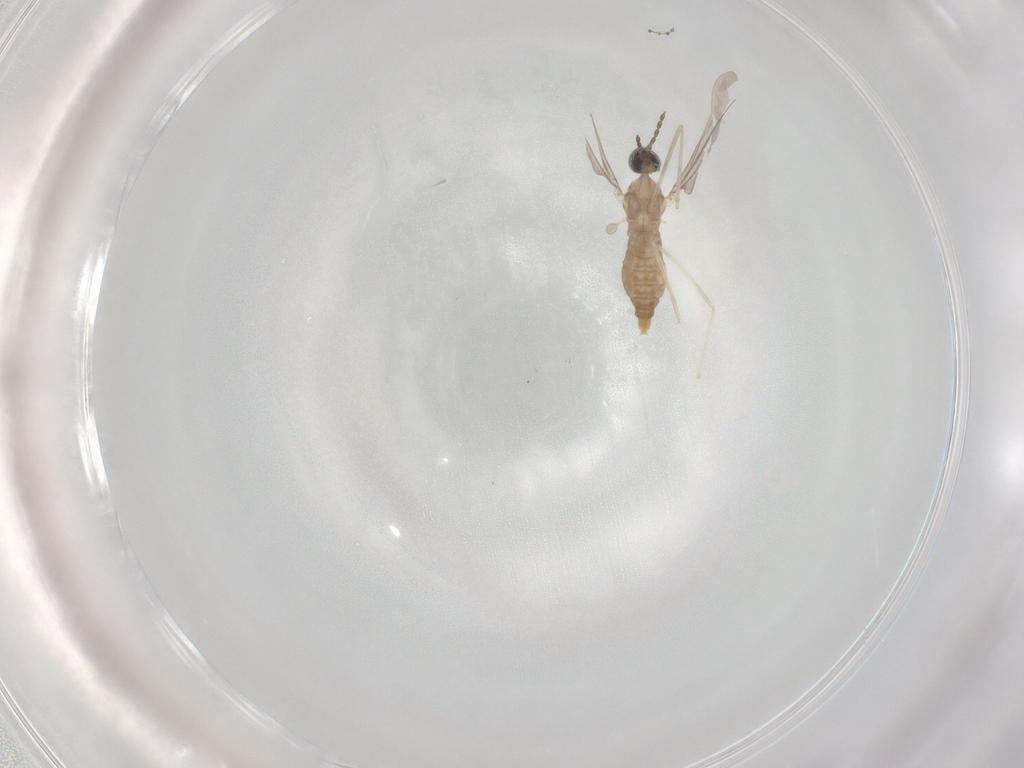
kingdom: Animalia
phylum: Arthropoda
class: Insecta
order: Diptera
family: Cecidomyiidae
